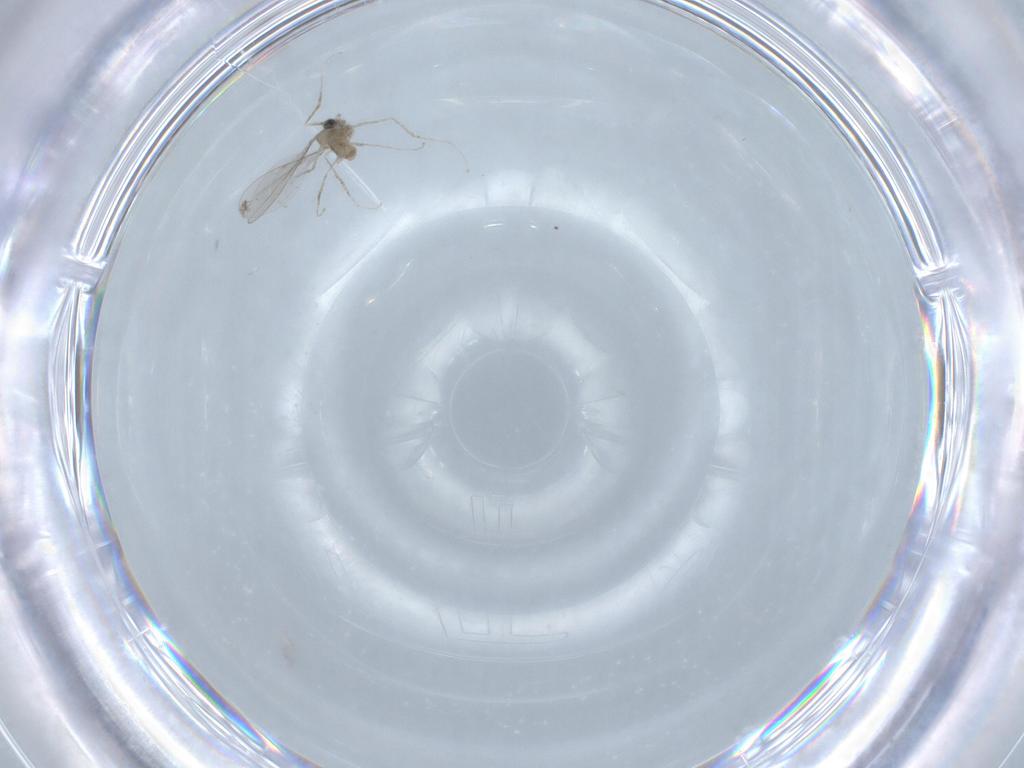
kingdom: Animalia
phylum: Arthropoda
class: Insecta
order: Diptera
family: Cecidomyiidae
